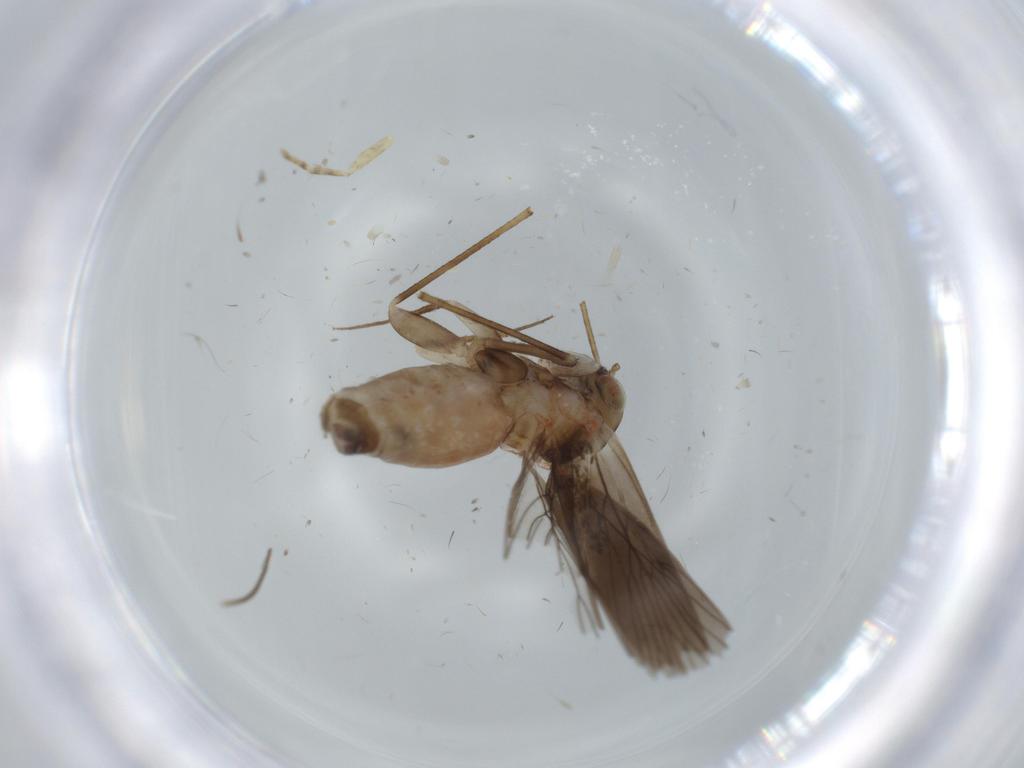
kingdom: Animalia
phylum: Arthropoda
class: Insecta
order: Psocodea
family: Lepidopsocidae
